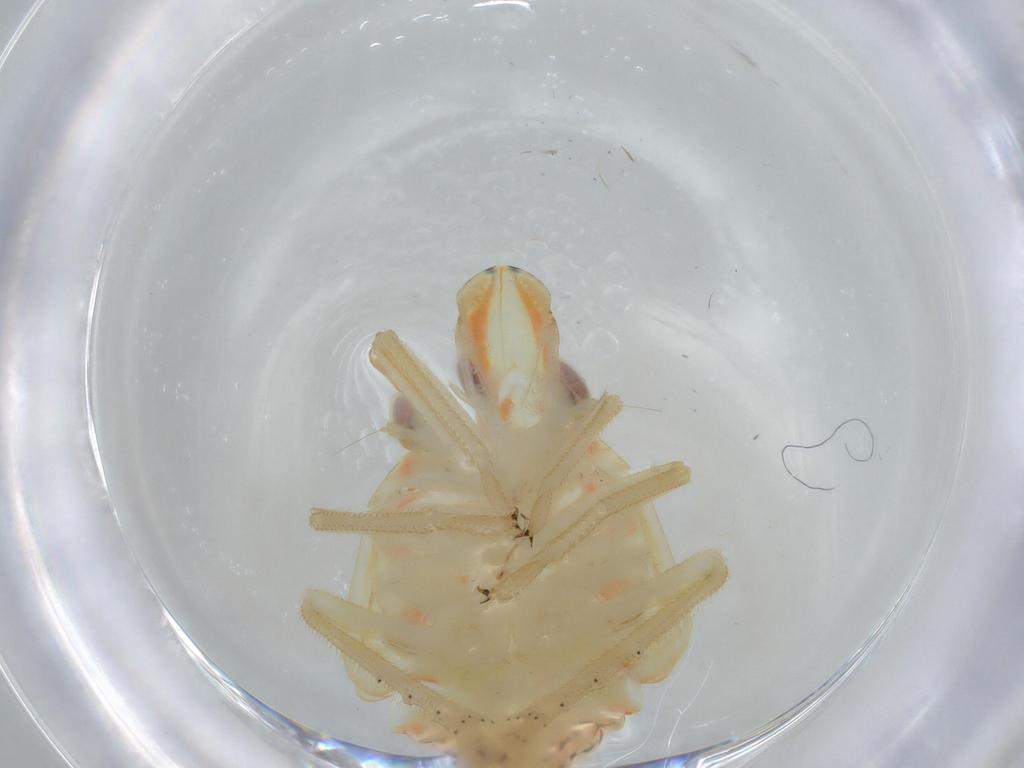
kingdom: Animalia
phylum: Arthropoda
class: Insecta
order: Hemiptera
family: Tropiduchidae
